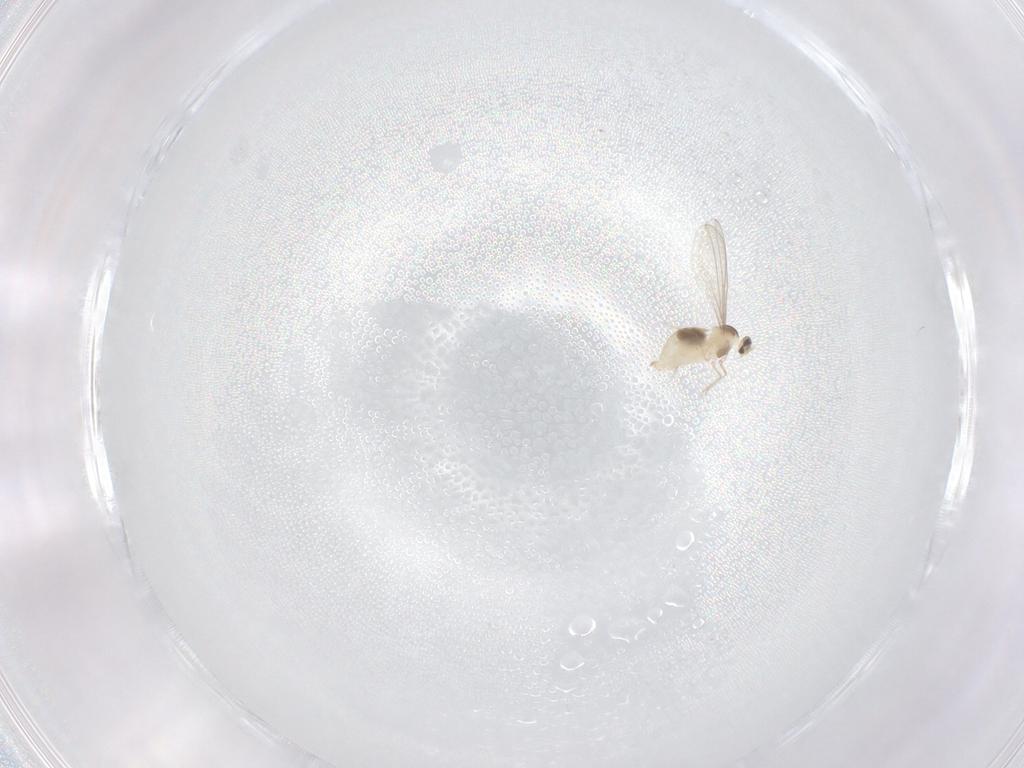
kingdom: Animalia
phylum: Arthropoda
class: Insecta
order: Diptera
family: Cecidomyiidae
